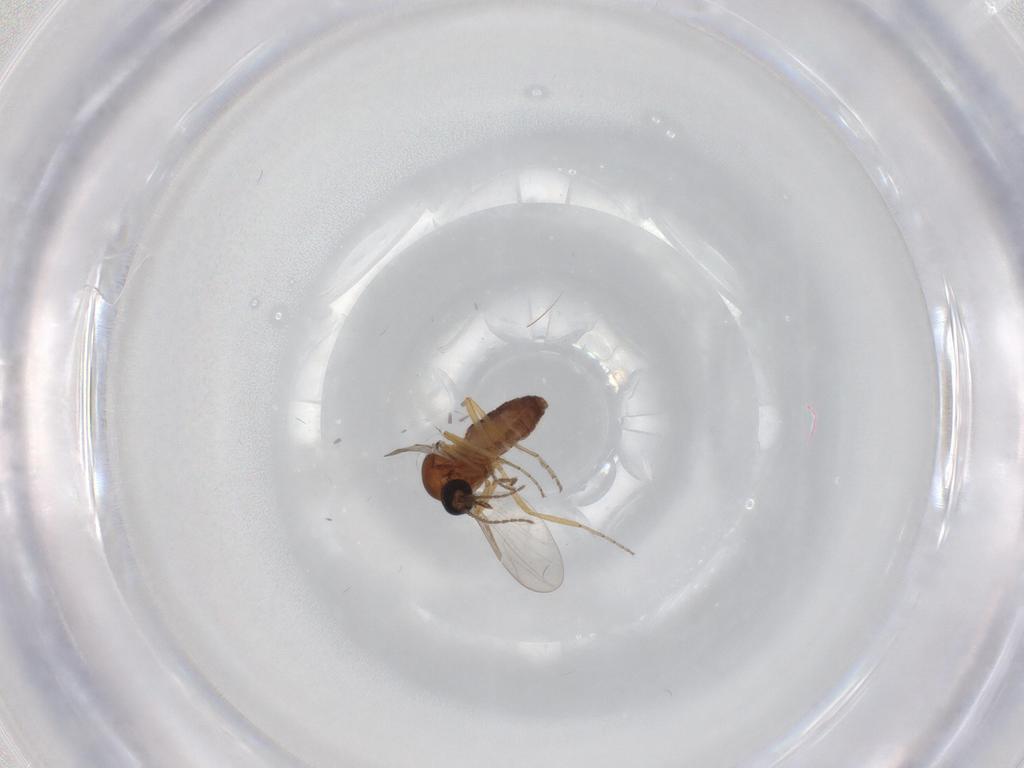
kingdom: Animalia
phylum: Arthropoda
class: Insecta
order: Diptera
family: Ceratopogonidae
